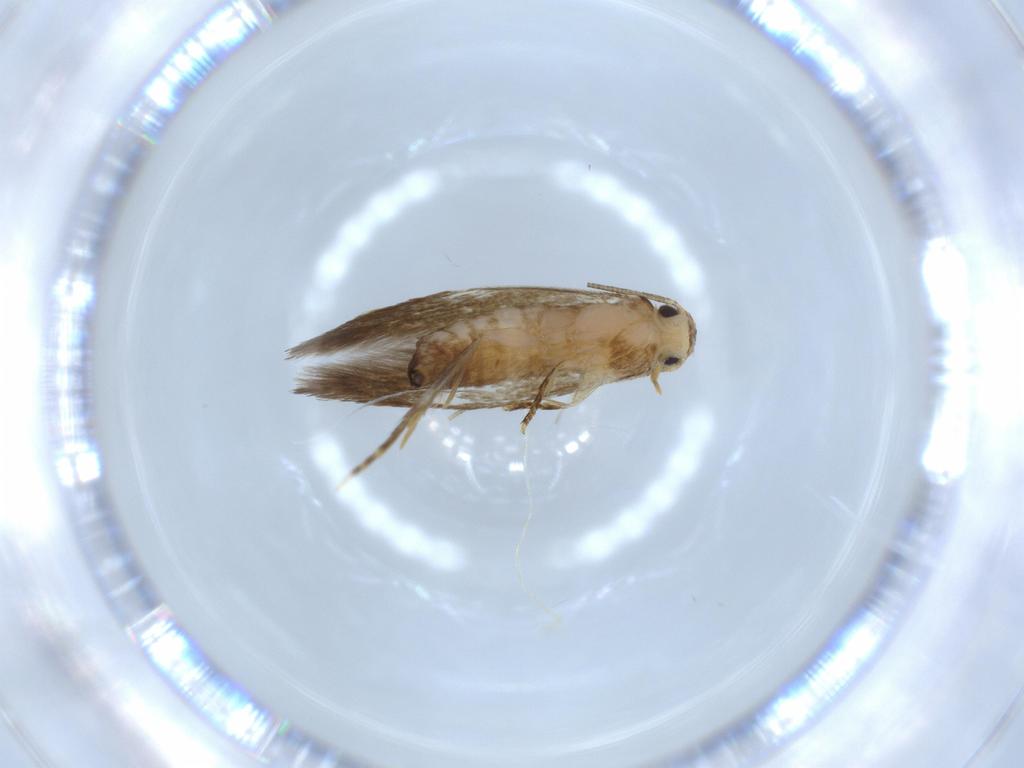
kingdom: Animalia
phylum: Arthropoda
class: Insecta
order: Lepidoptera
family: Tineidae
